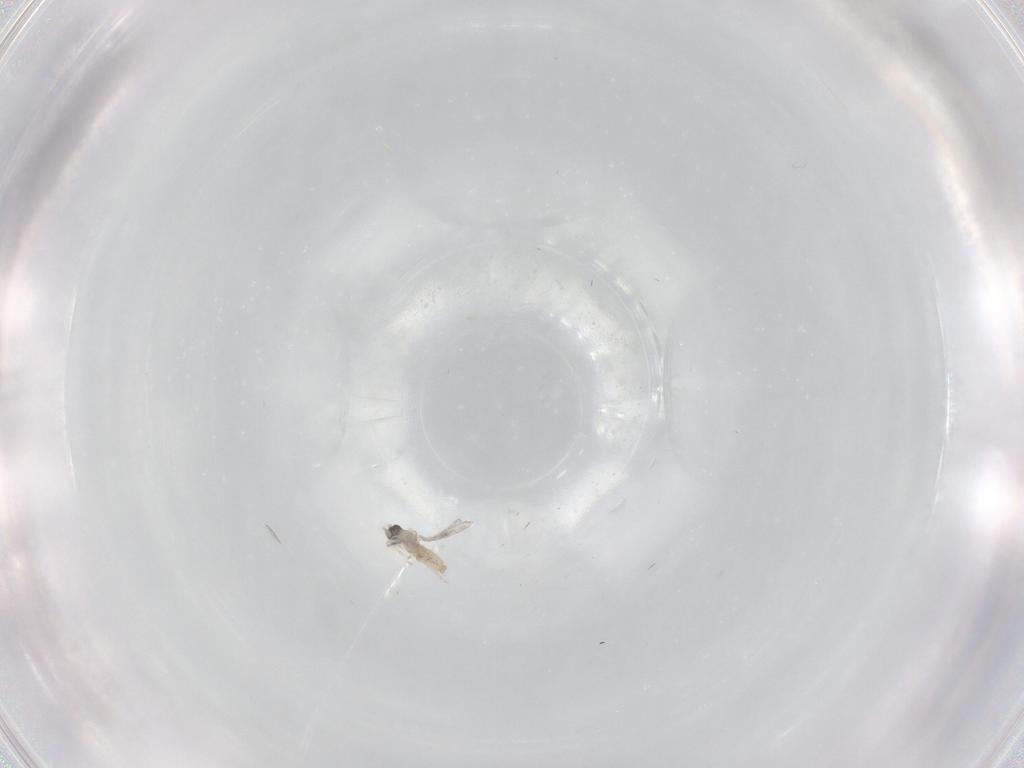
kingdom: Animalia
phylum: Arthropoda
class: Insecta
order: Diptera
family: Cecidomyiidae
